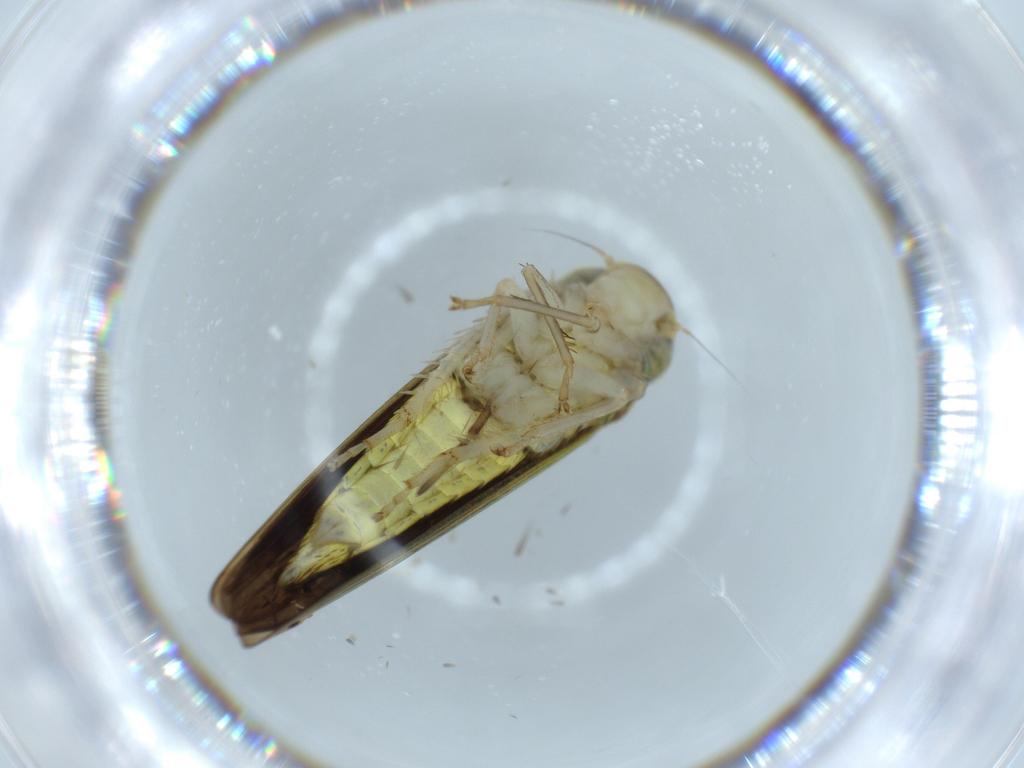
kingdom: Animalia
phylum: Arthropoda
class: Insecta
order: Hemiptera
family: Cicadellidae
